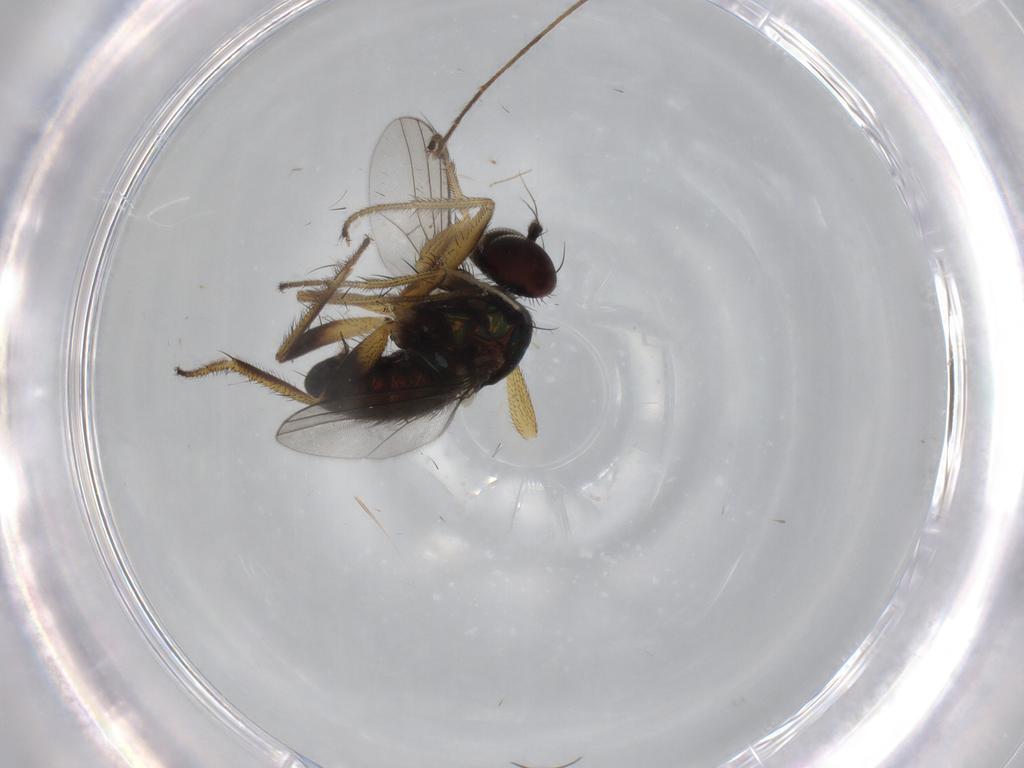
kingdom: Animalia
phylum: Arthropoda
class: Insecta
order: Diptera
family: Dolichopodidae
